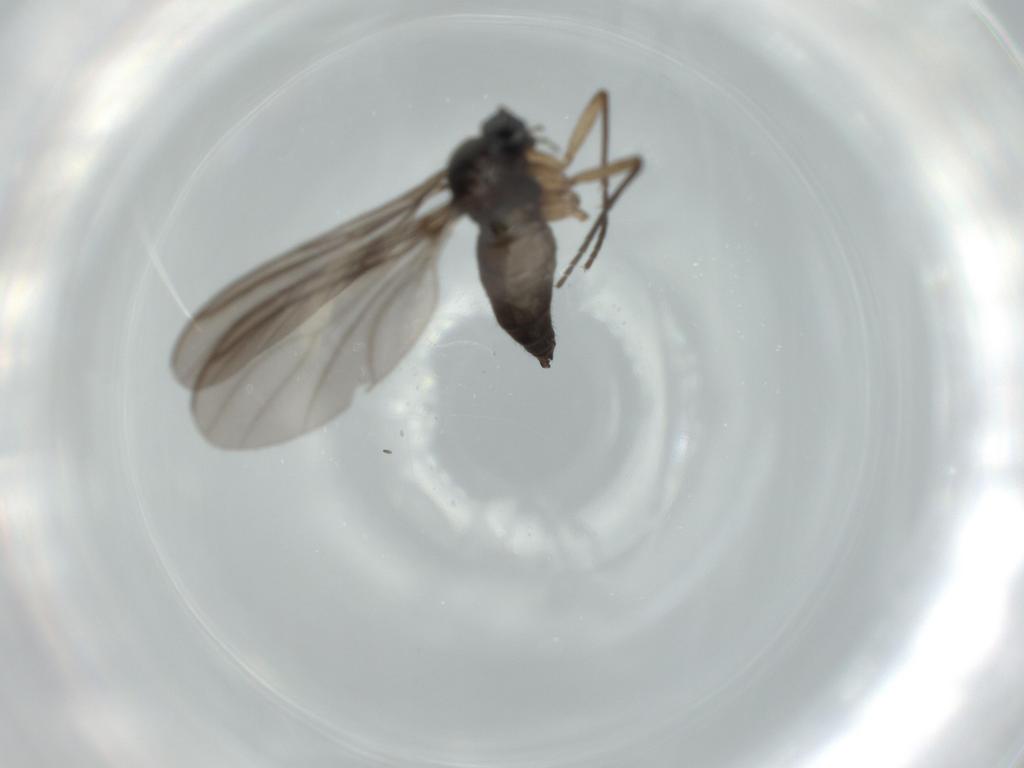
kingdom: Animalia
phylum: Arthropoda
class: Insecta
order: Diptera
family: Sciaridae
